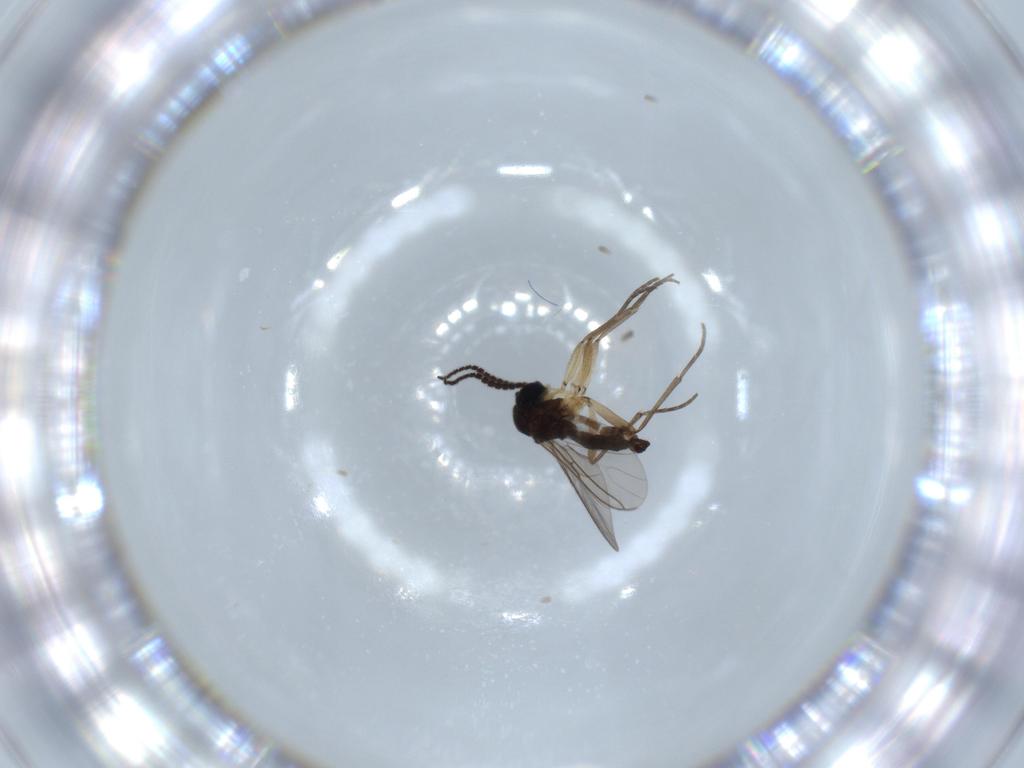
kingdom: Animalia
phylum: Arthropoda
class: Insecta
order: Diptera
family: Sciaridae
